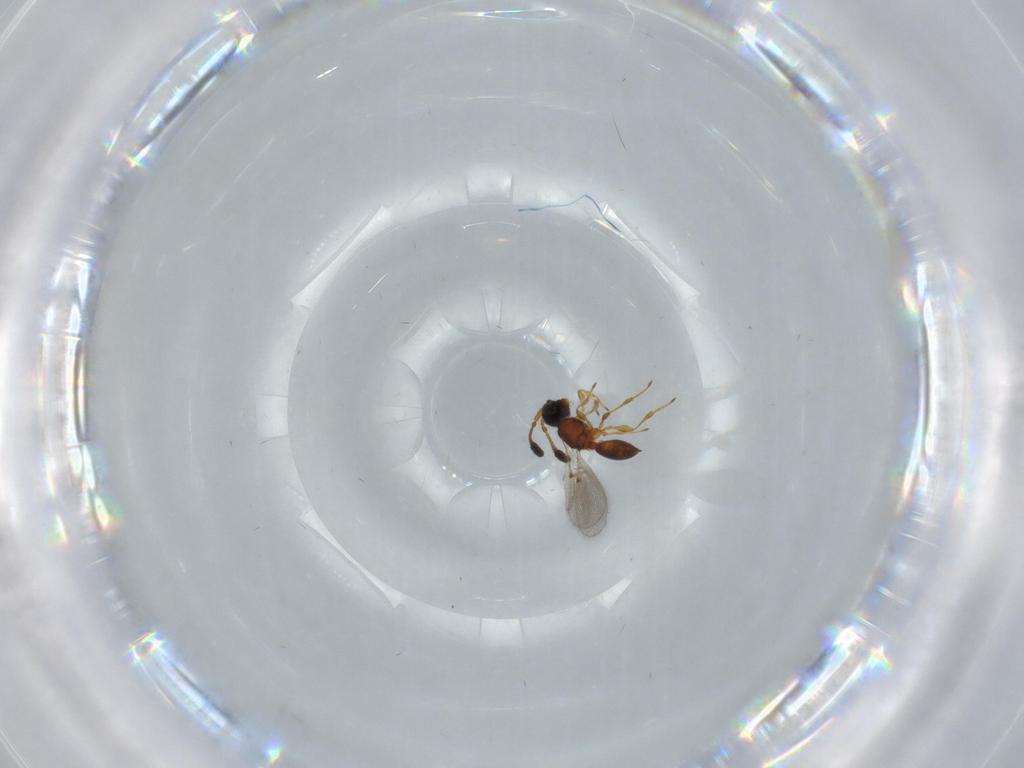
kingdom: Animalia
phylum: Arthropoda
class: Insecta
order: Hymenoptera
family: Diapriidae
